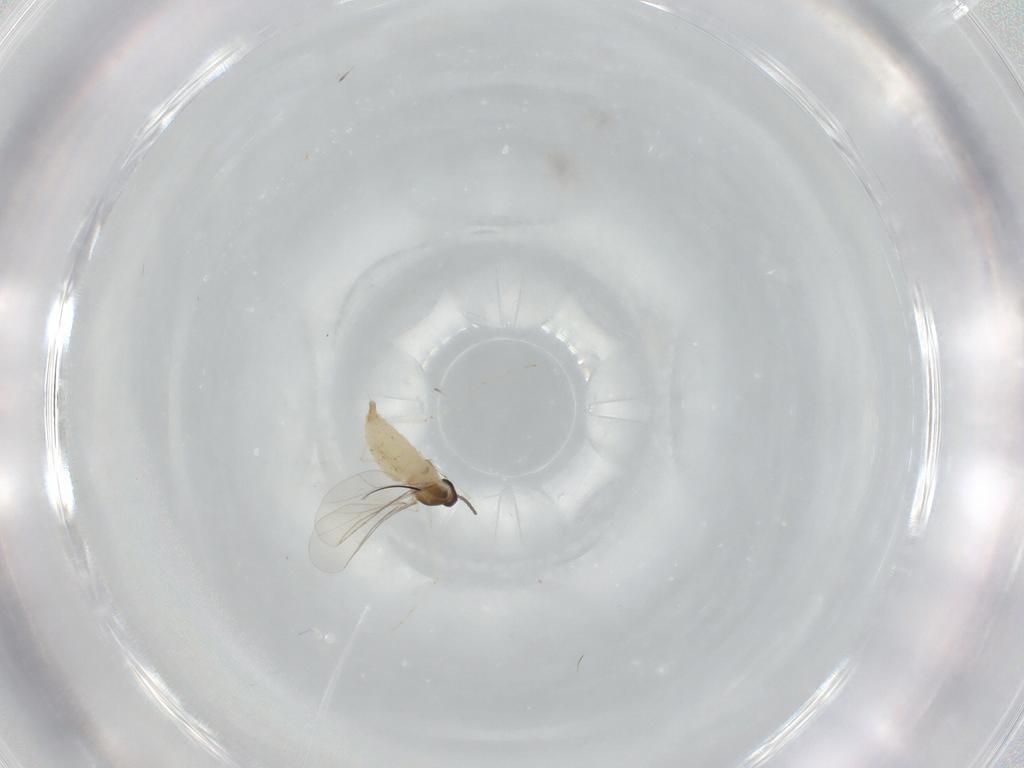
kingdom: Animalia
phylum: Arthropoda
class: Insecta
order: Diptera
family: Cecidomyiidae
